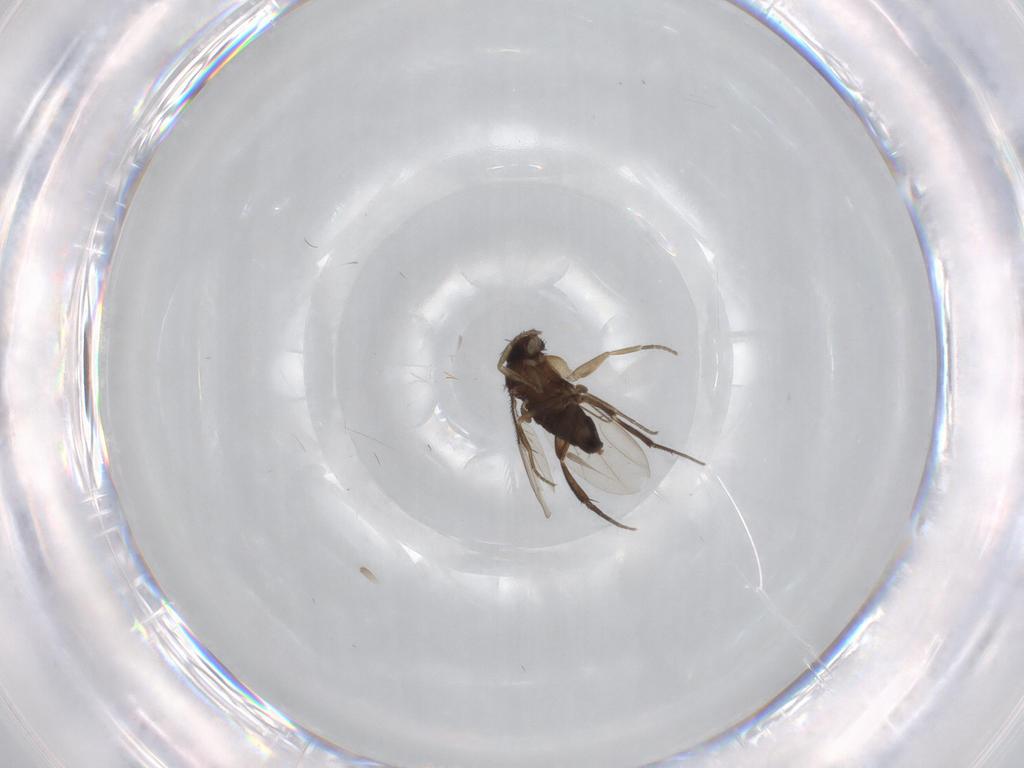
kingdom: Animalia
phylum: Arthropoda
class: Insecta
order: Diptera
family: Phoridae
